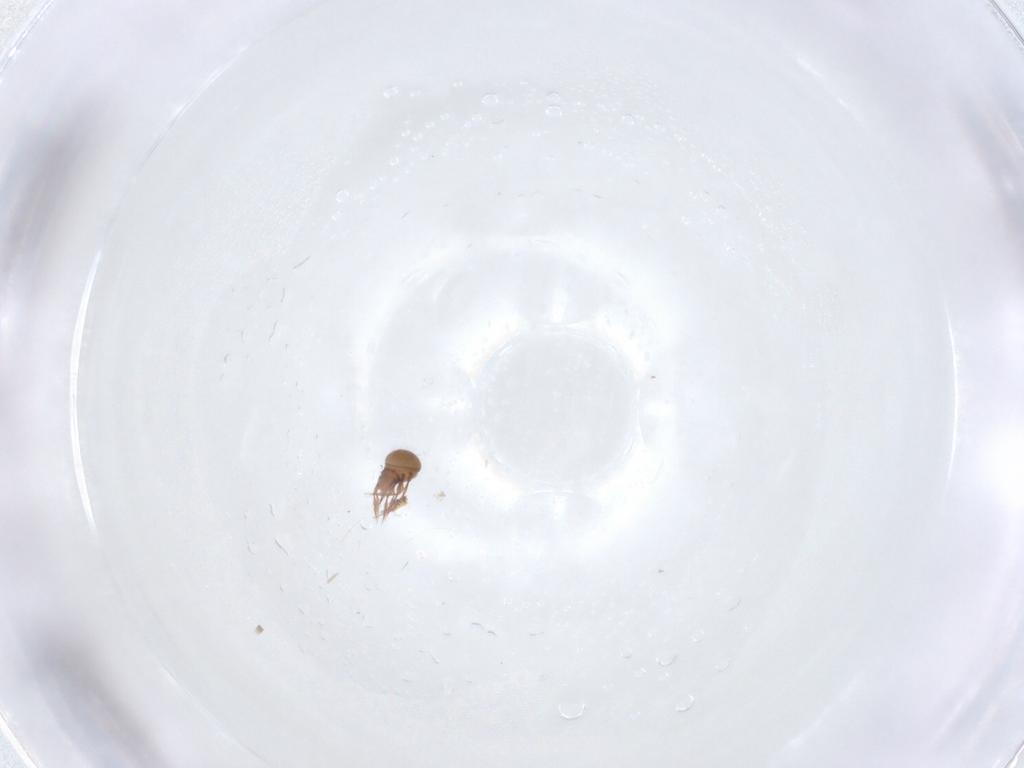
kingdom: Animalia
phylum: Arthropoda
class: Arachnida
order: Sarcoptiformes
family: Oppiidae
